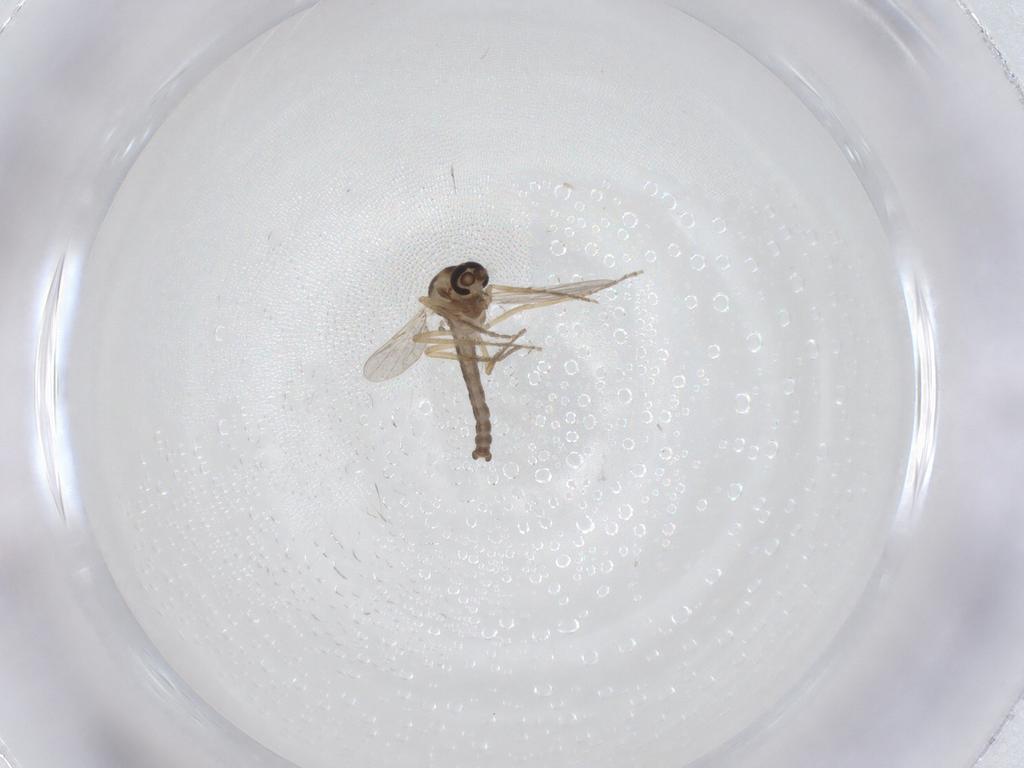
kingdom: Animalia
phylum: Arthropoda
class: Insecta
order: Diptera
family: Ceratopogonidae
